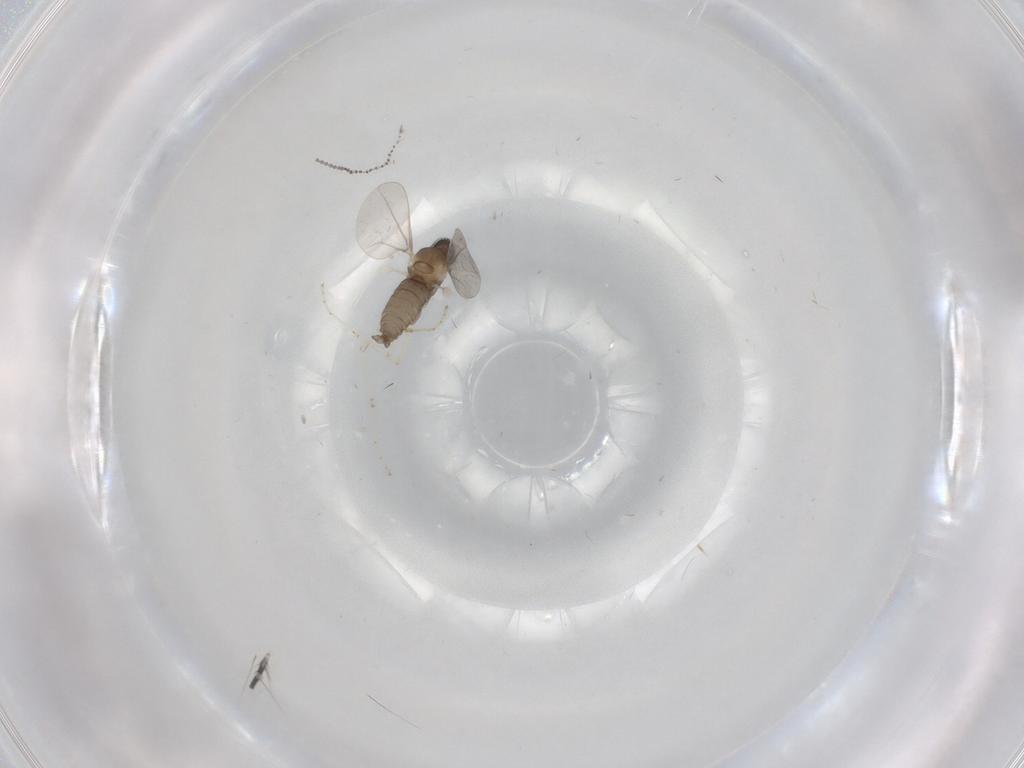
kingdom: Animalia
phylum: Arthropoda
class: Insecta
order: Diptera
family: Cecidomyiidae
